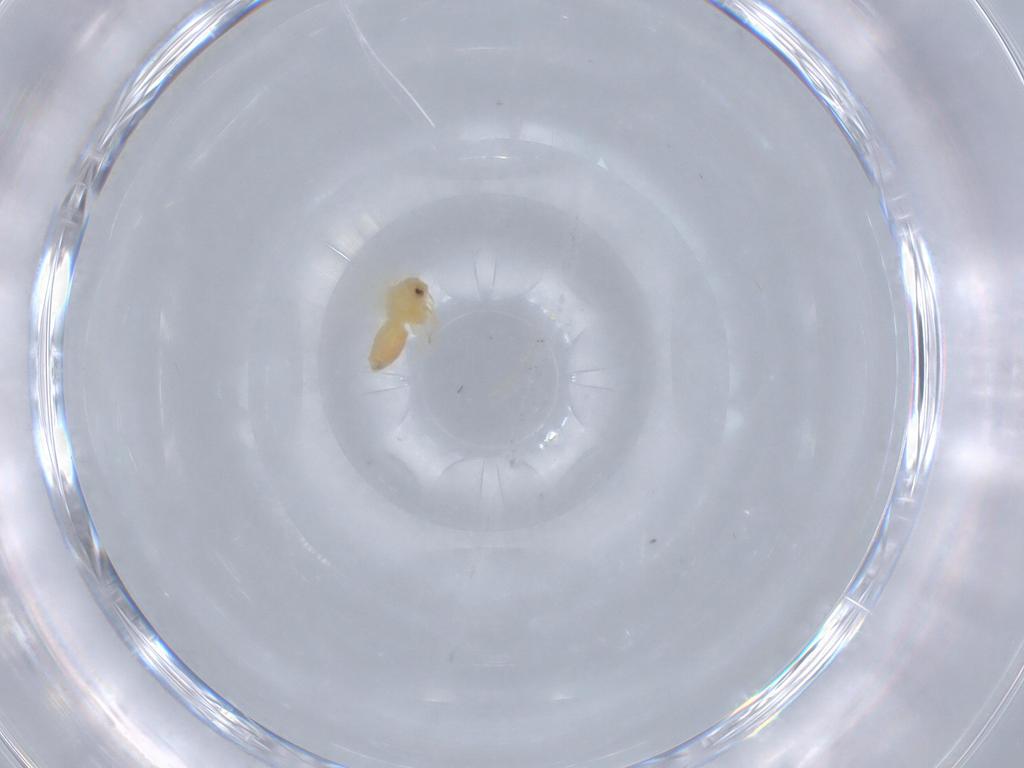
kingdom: Animalia
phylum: Arthropoda
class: Insecta
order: Hemiptera
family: Aleyrodidae
